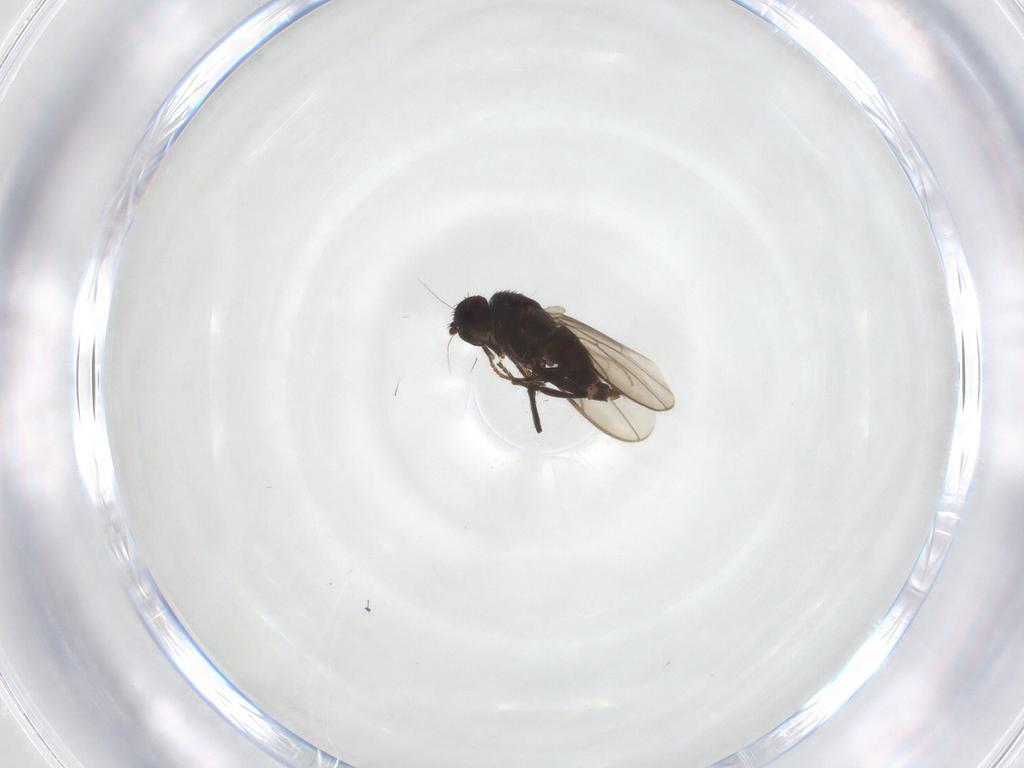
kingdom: Animalia
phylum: Arthropoda
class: Insecta
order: Diptera
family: Sphaeroceridae
